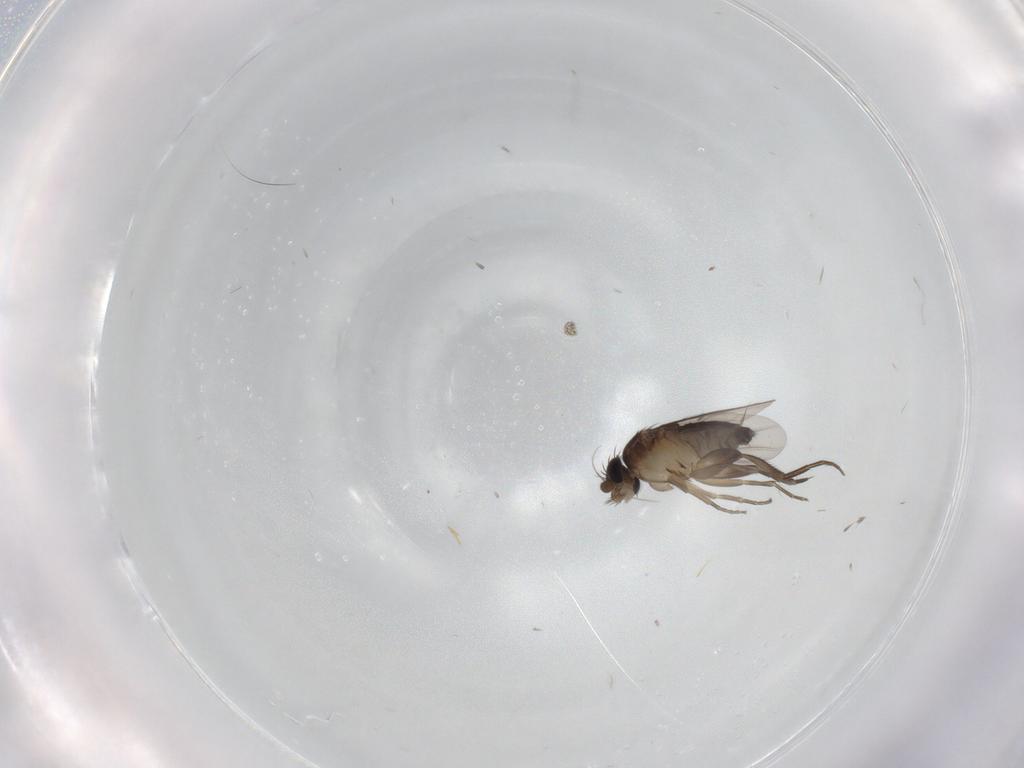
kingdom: Animalia
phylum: Arthropoda
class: Insecta
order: Diptera
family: Phoridae
